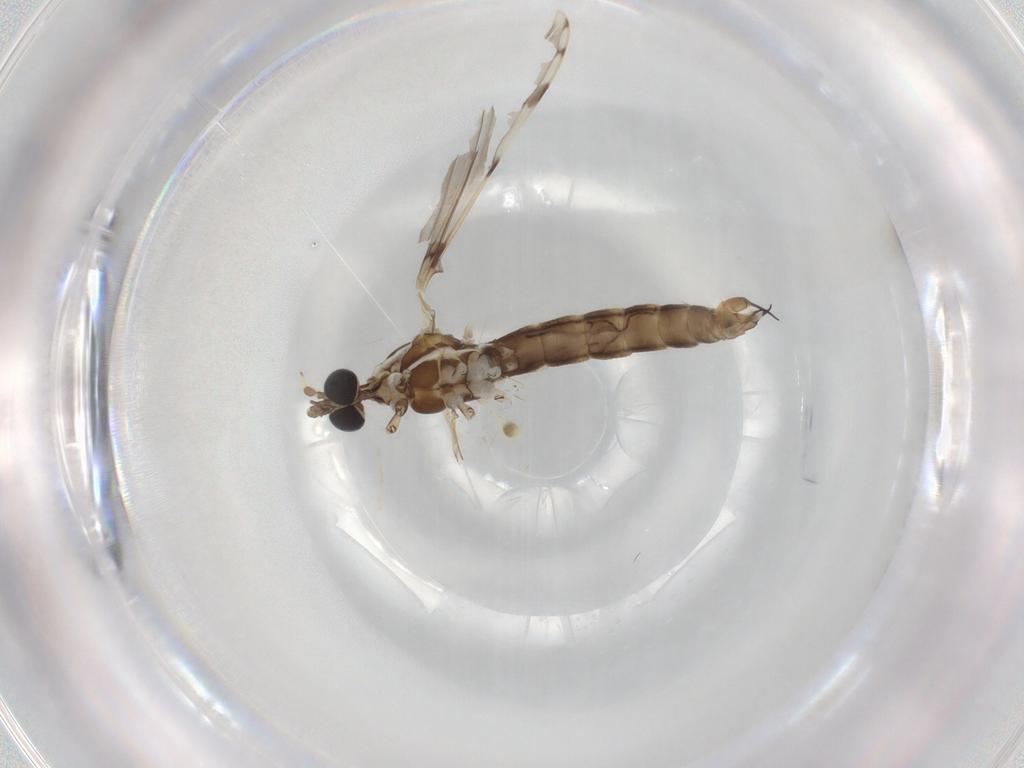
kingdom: Animalia
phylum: Arthropoda
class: Insecta
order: Diptera
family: Limoniidae
